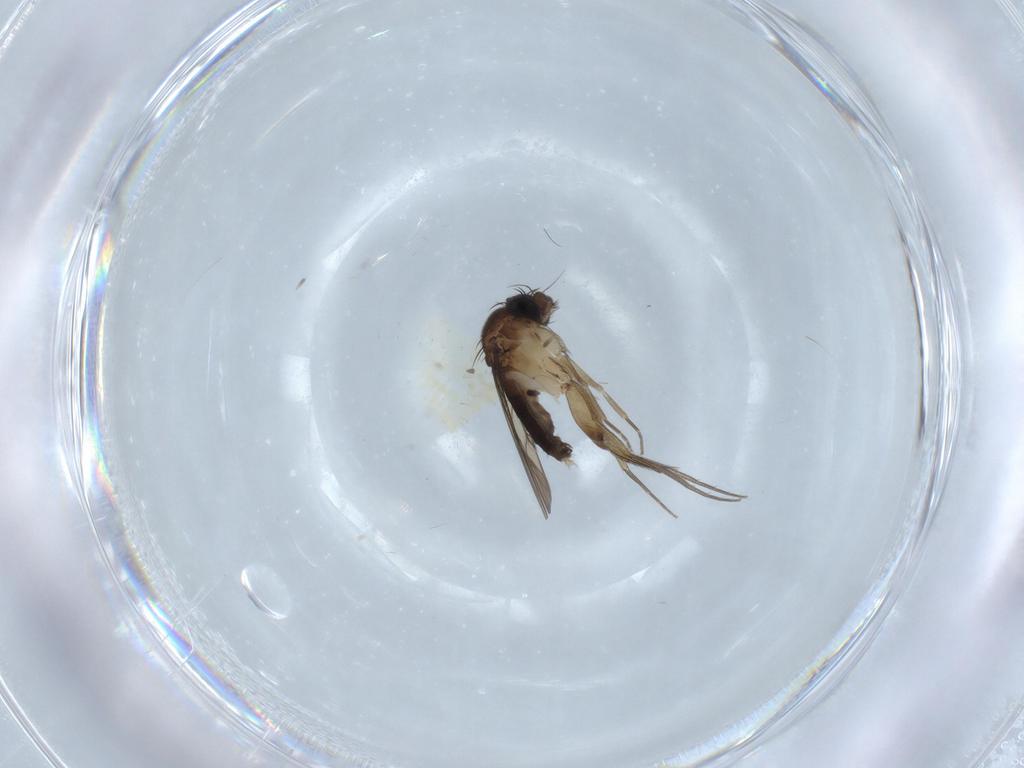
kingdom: Animalia
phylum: Arthropoda
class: Insecta
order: Diptera
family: Phoridae
